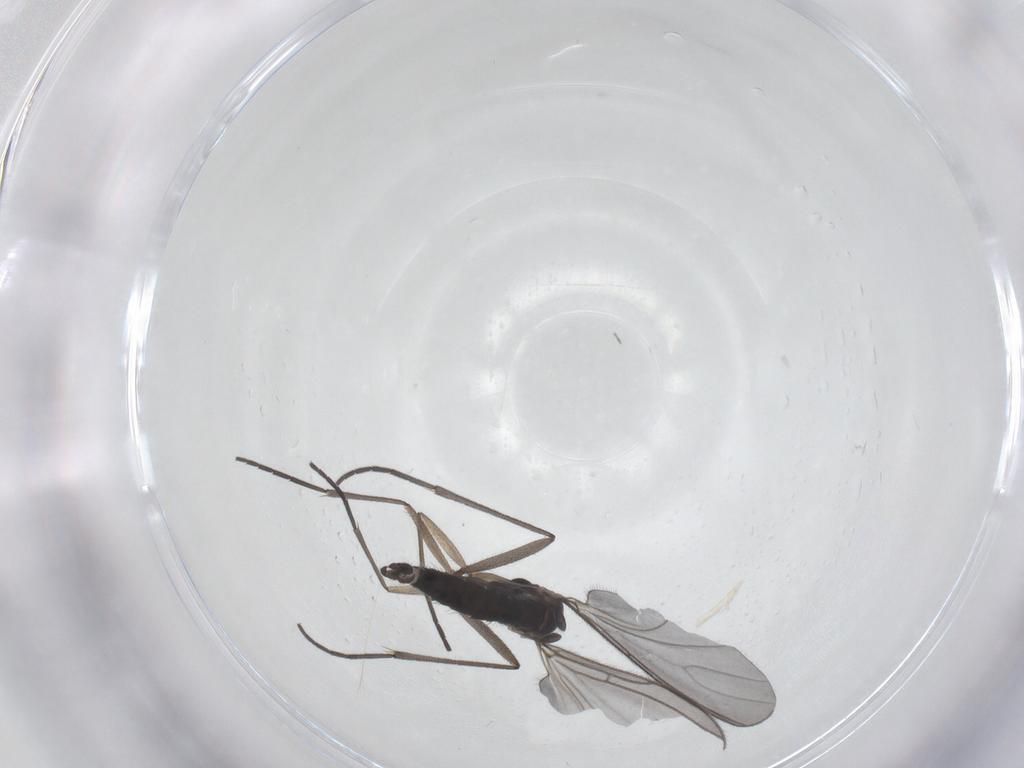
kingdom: Animalia
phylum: Arthropoda
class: Insecta
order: Diptera
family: Sciaridae
